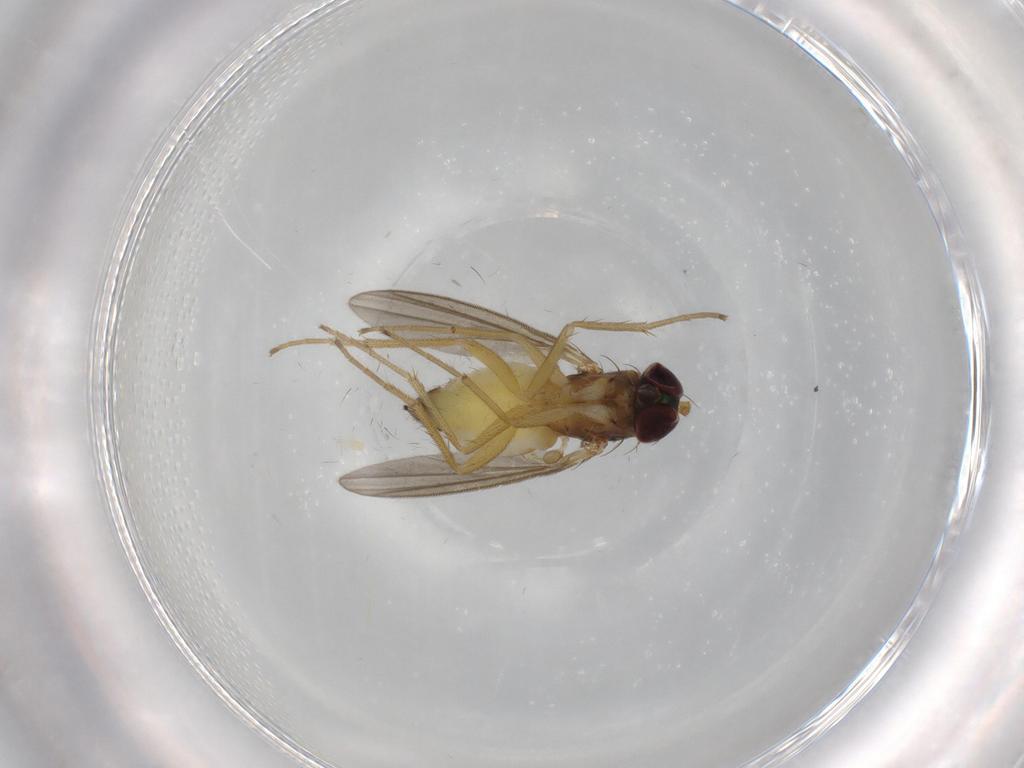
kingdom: Animalia
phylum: Arthropoda
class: Insecta
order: Diptera
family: Dolichopodidae
